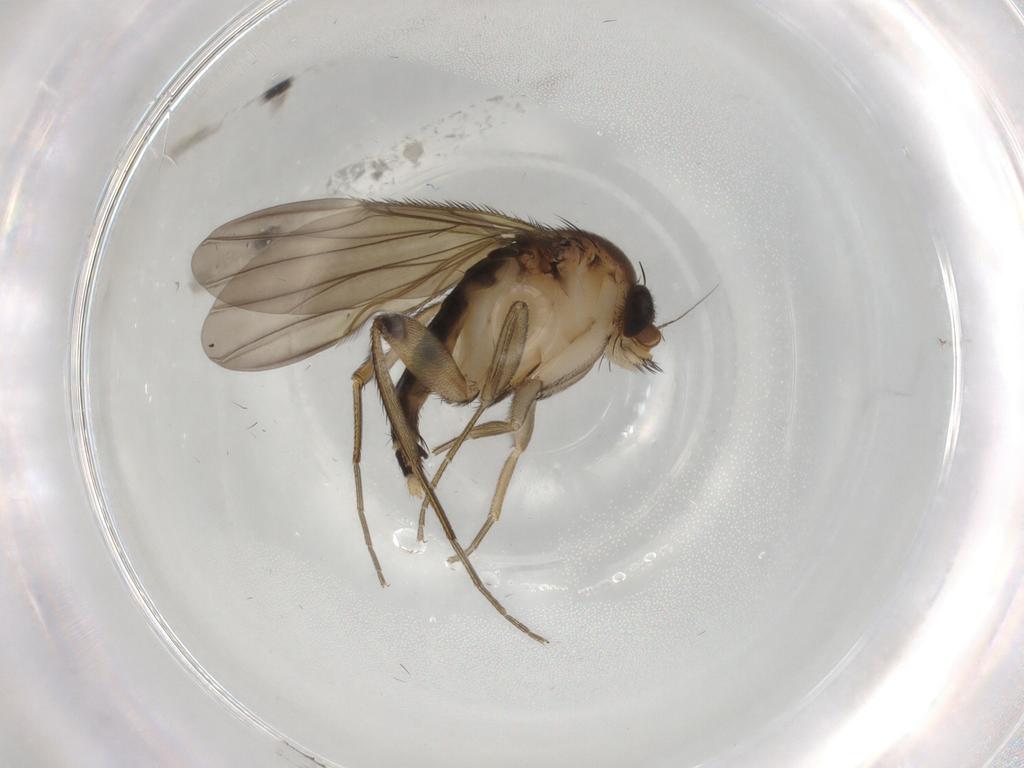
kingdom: Animalia
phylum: Arthropoda
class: Insecta
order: Diptera
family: Phoridae
